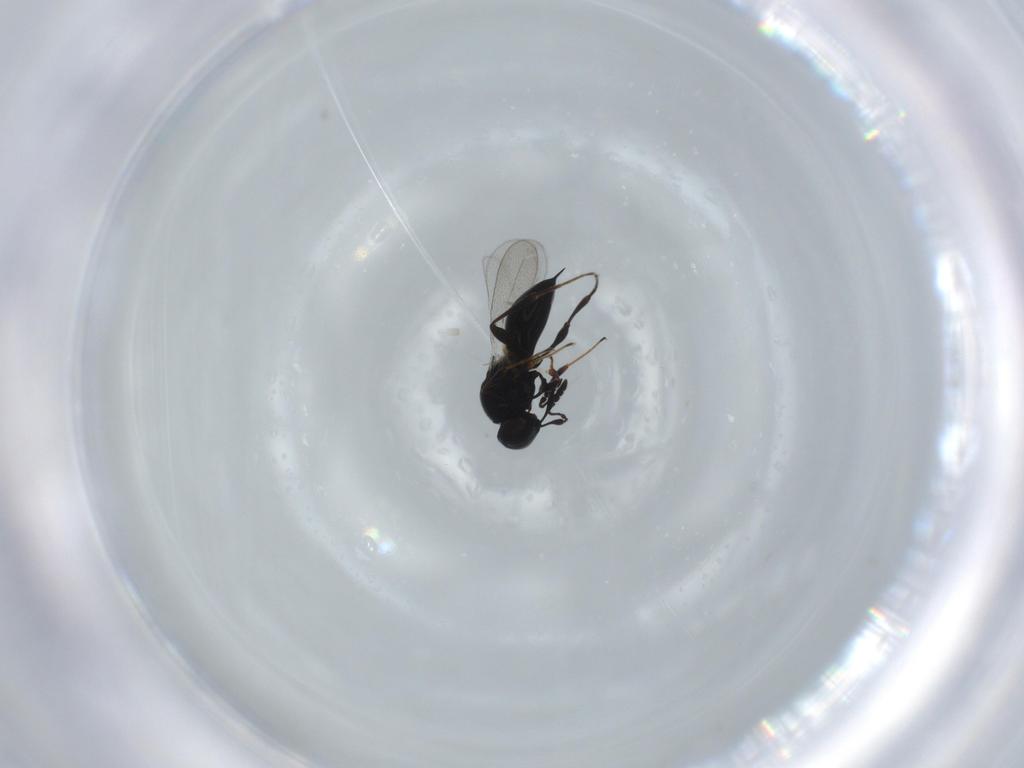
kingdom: Animalia
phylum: Arthropoda
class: Insecta
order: Hymenoptera
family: Platygastridae
